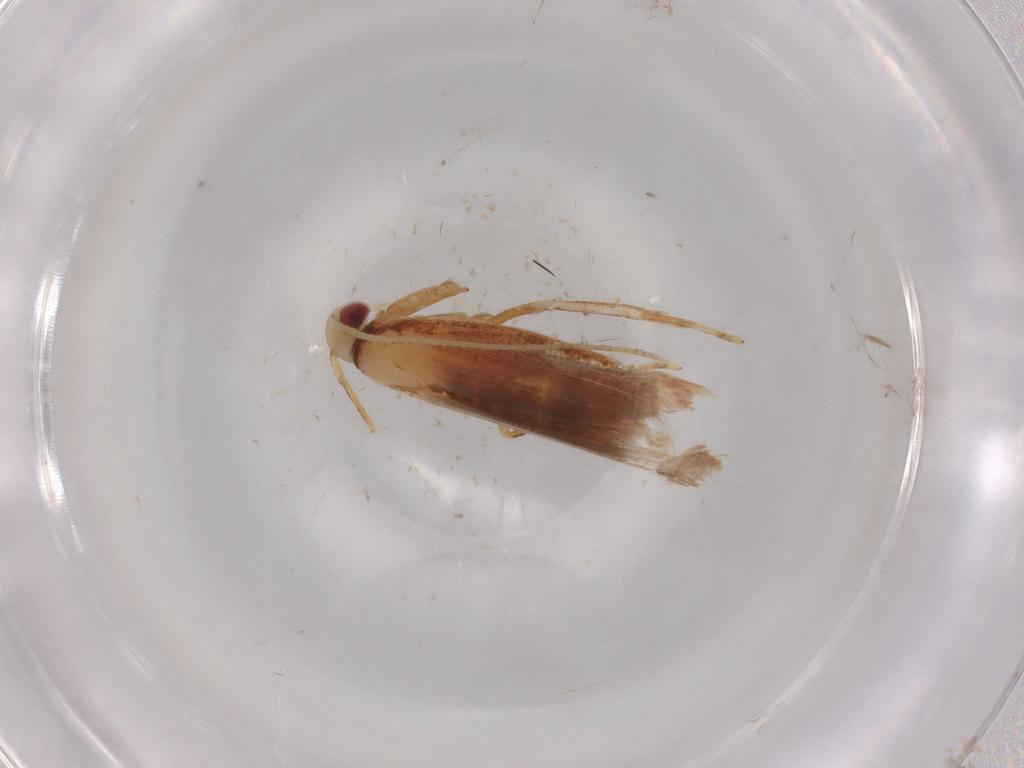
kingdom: Animalia
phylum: Arthropoda
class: Insecta
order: Lepidoptera
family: Cosmopterigidae
